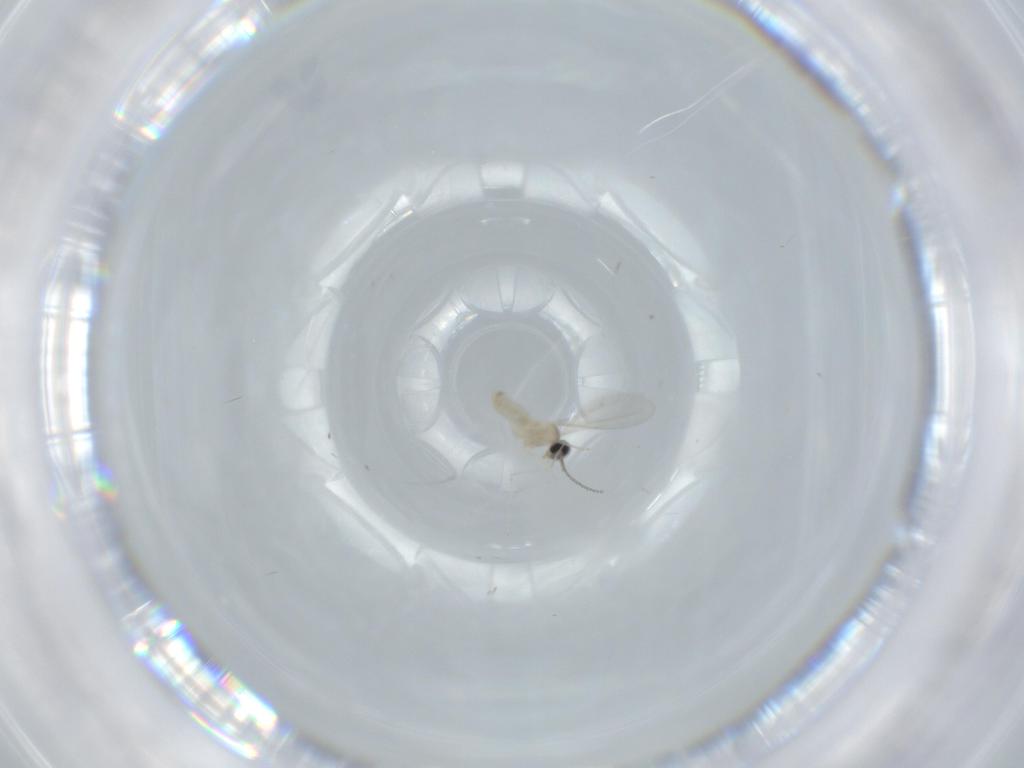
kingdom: Animalia
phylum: Arthropoda
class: Insecta
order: Diptera
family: Cecidomyiidae
